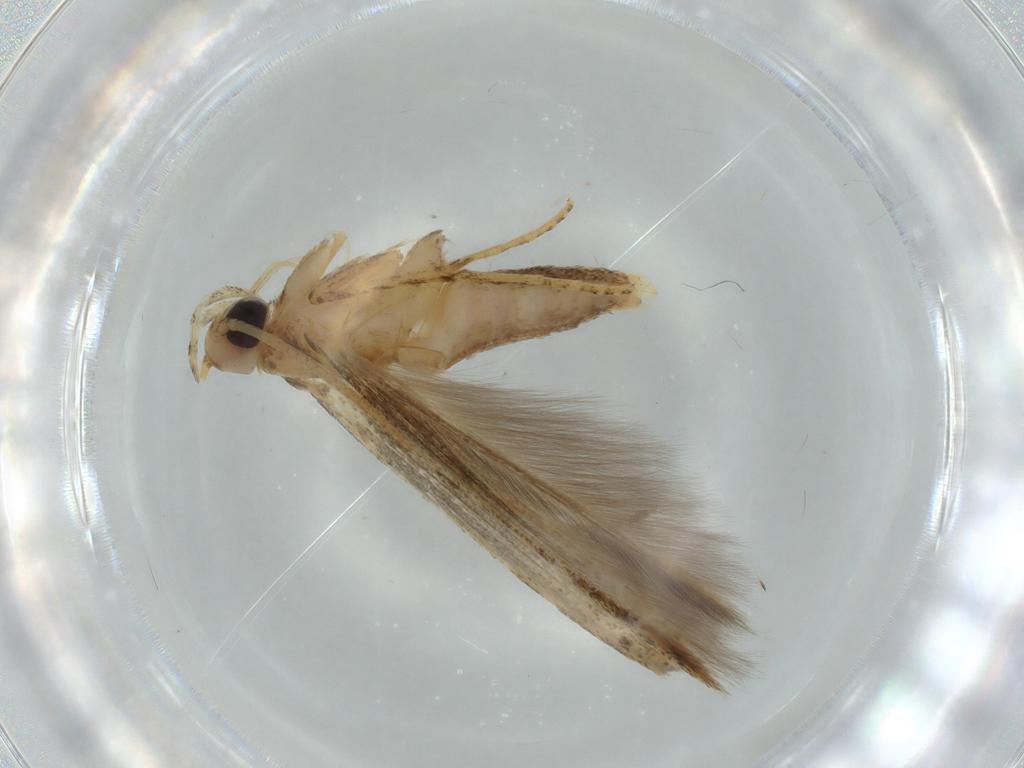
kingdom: Animalia
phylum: Arthropoda
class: Insecta
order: Lepidoptera
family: Batrachedridae
